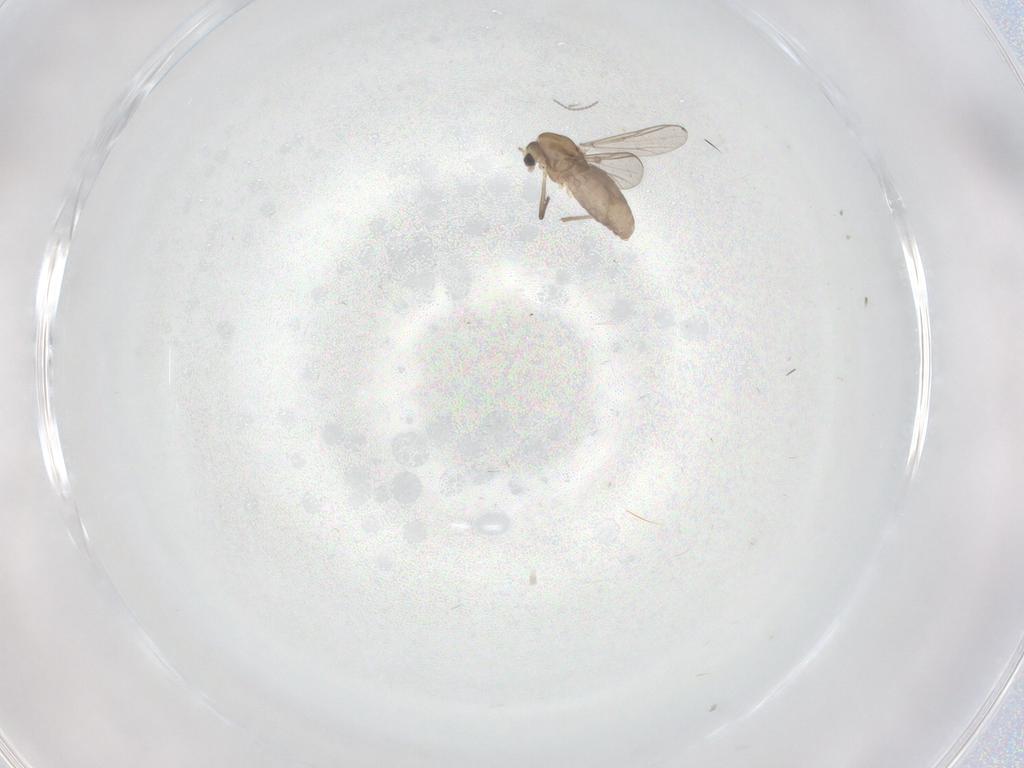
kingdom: Animalia
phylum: Arthropoda
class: Insecta
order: Diptera
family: Chironomidae
